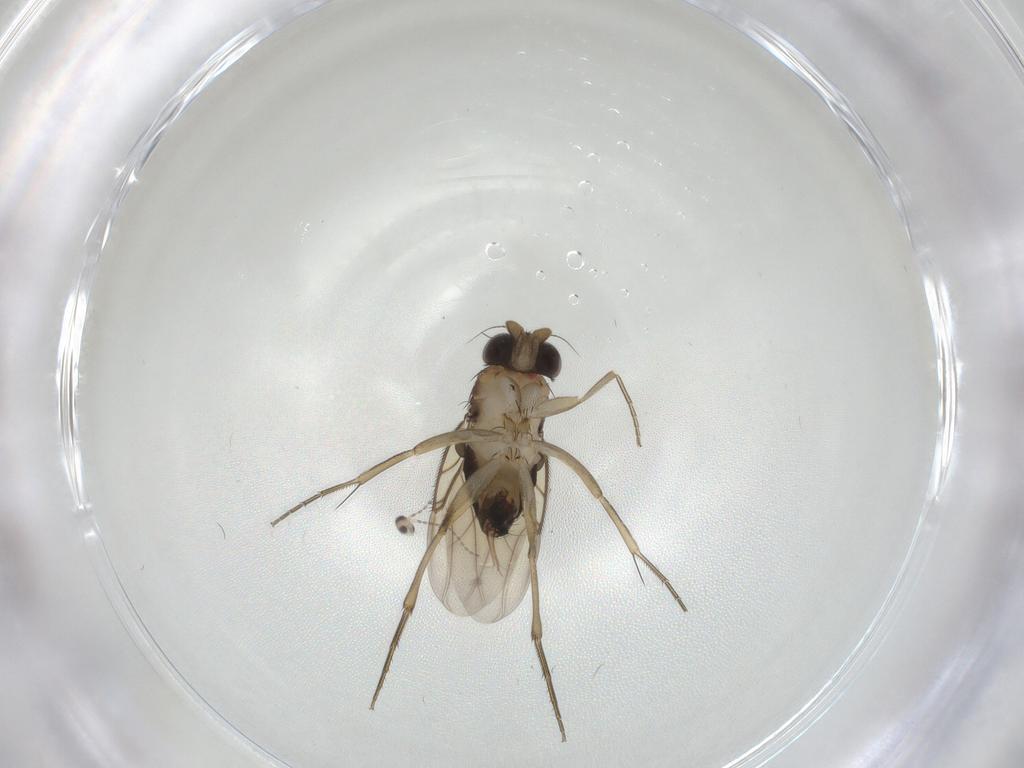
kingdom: Animalia
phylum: Arthropoda
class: Insecta
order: Diptera
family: Phoridae
